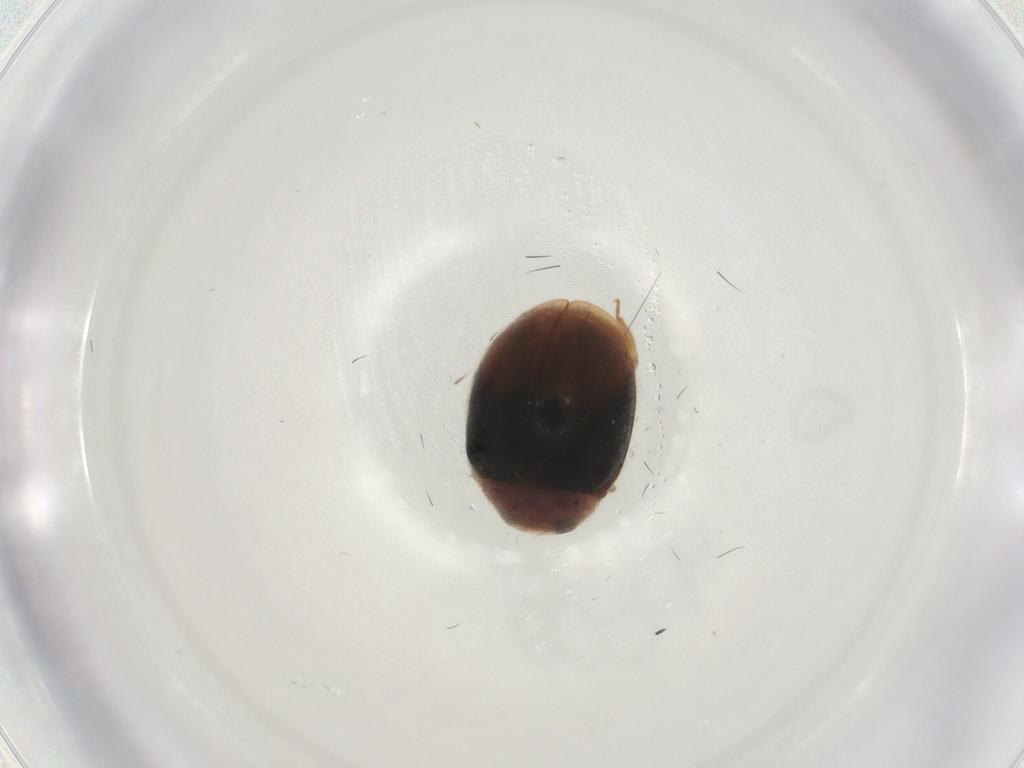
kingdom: Animalia
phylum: Arthropoda
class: Insecta
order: Coleoptera
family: Coccinellidae
